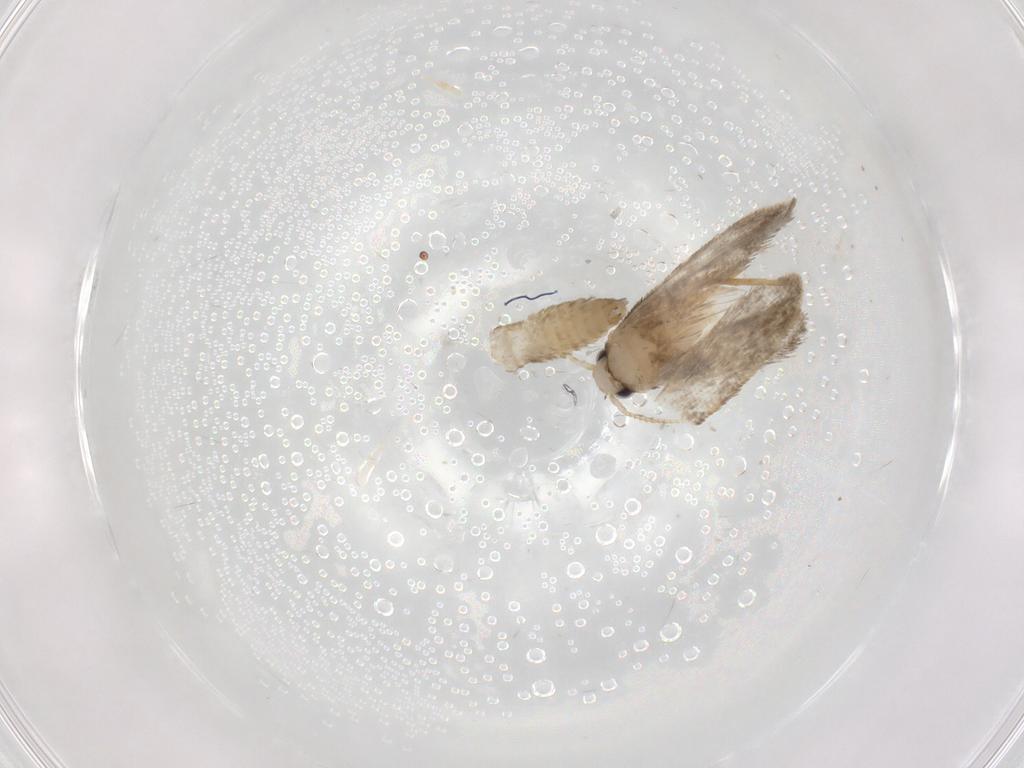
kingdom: Animalia
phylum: Arthropoda
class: Insecta
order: Lepidoptera
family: Psychidae
